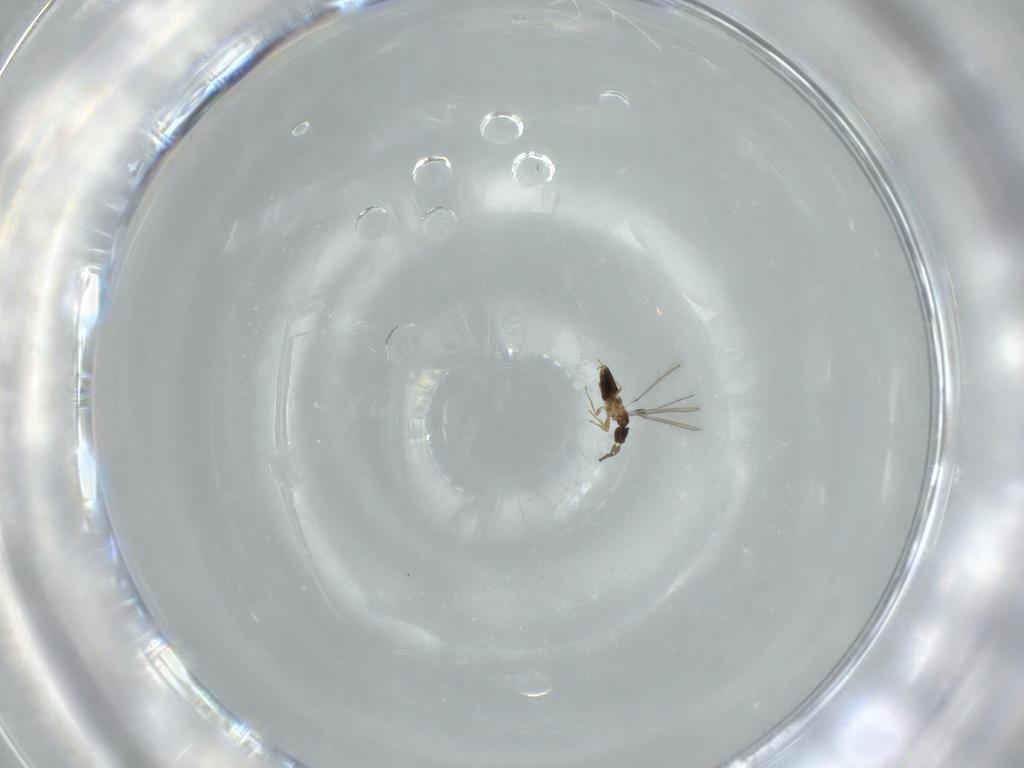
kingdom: Animalia
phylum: Arthropoda
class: Insecta
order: Hymenoptera
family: Mymaridae
